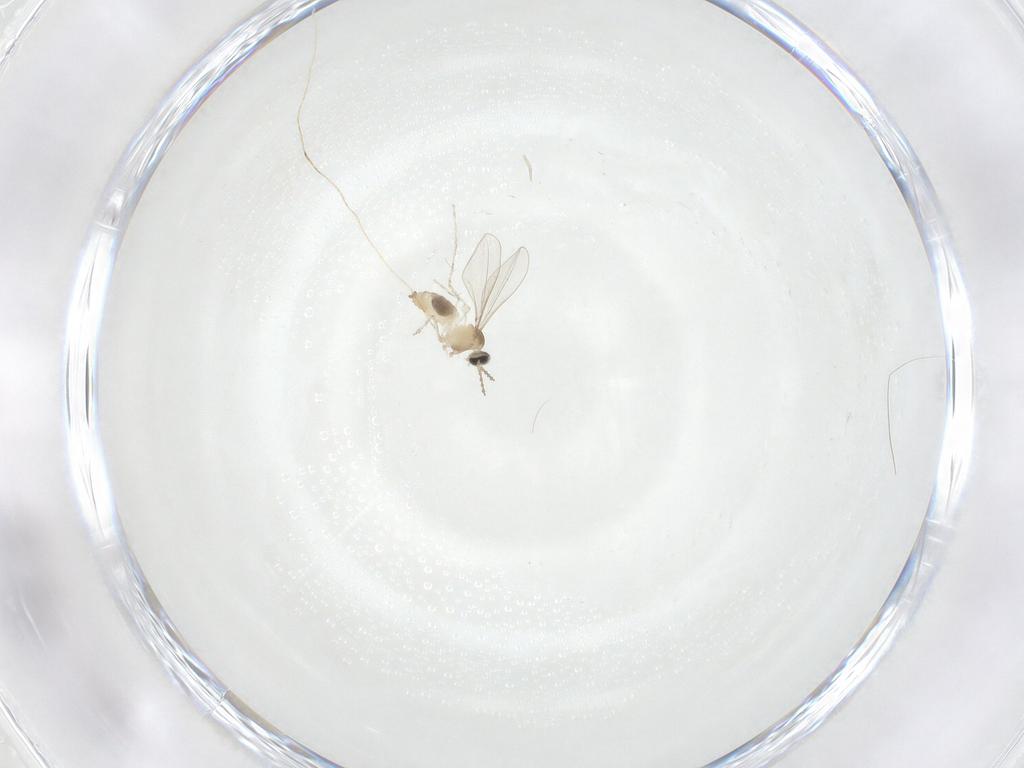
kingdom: Animalia
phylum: Arthropoda
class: Insecta
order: Diptera
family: Cecidomyiidae
